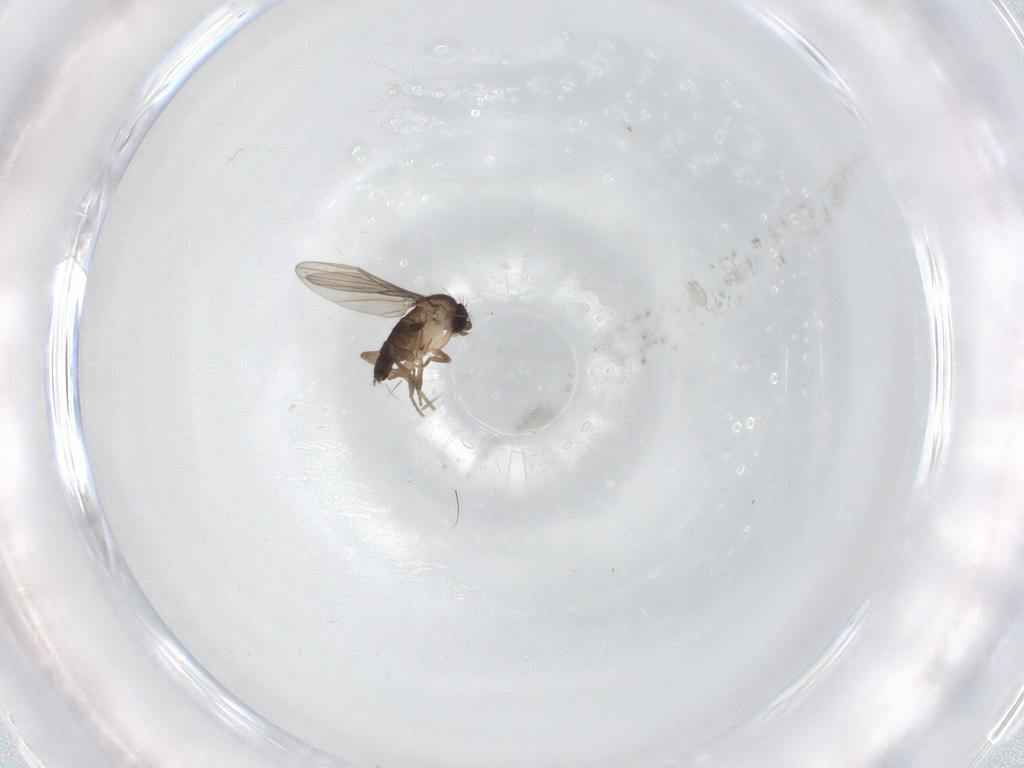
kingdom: Animalia
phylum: Arthropoda
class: Insecta
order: Diptera
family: Phoridae
